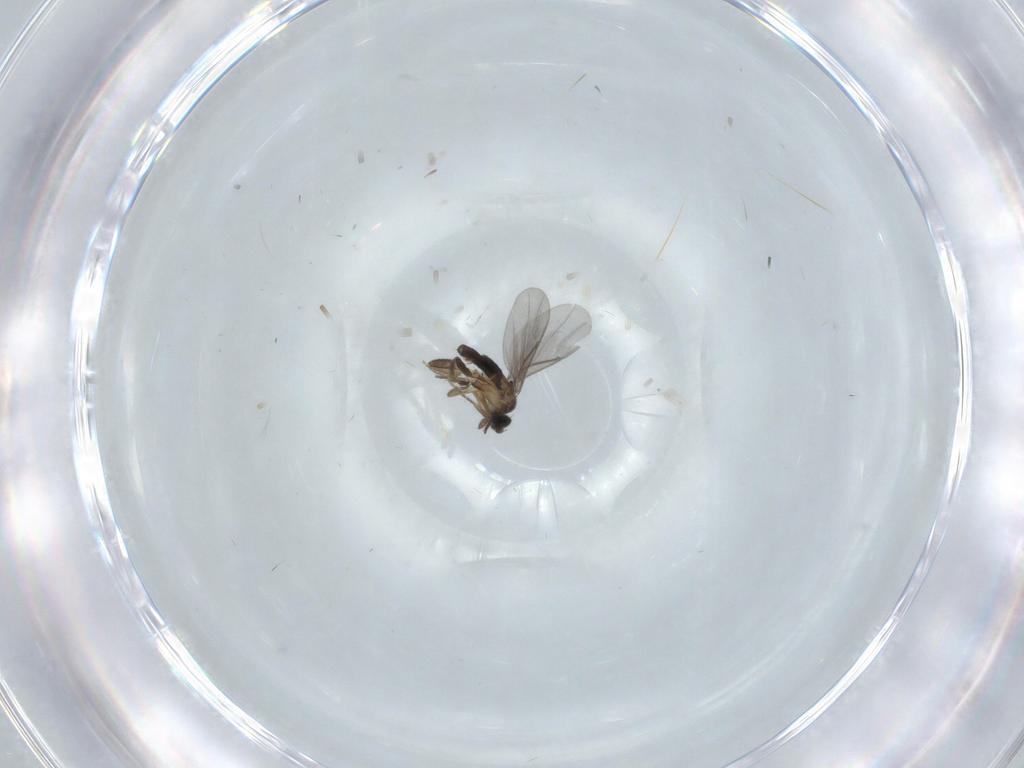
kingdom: Animalia
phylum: Arthropoda
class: Insecta
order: Diptera
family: Cecidomyiidae
